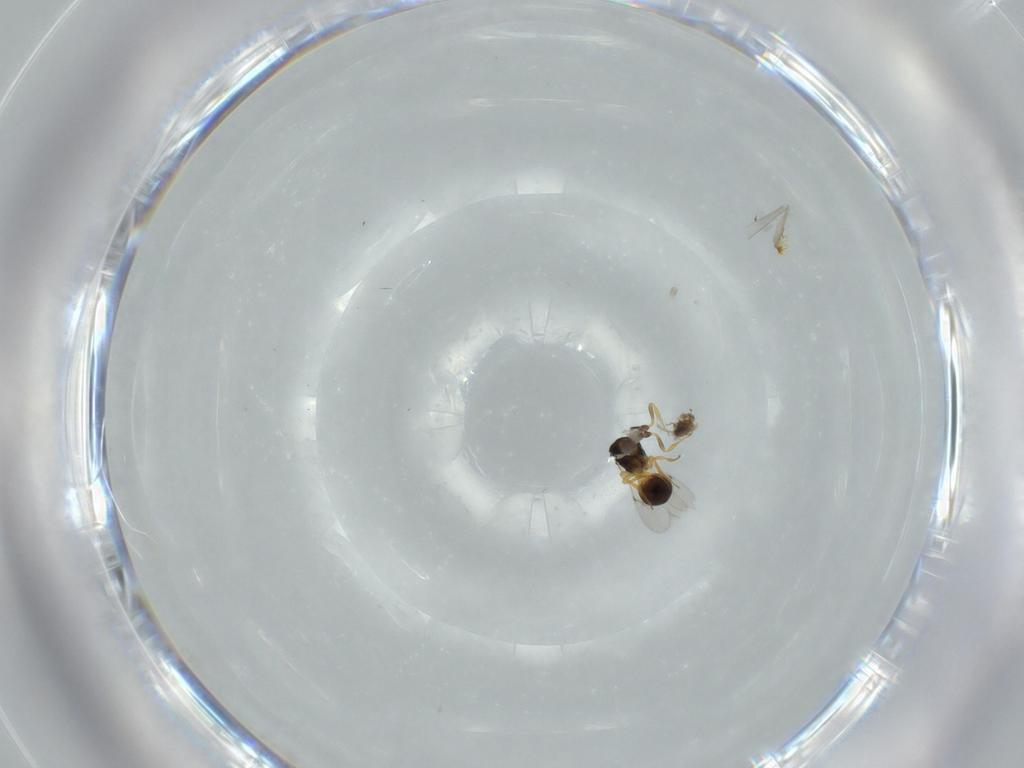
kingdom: Animalia
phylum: Arthropoda
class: Insecta
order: Hymenoptera
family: Scelionidae
